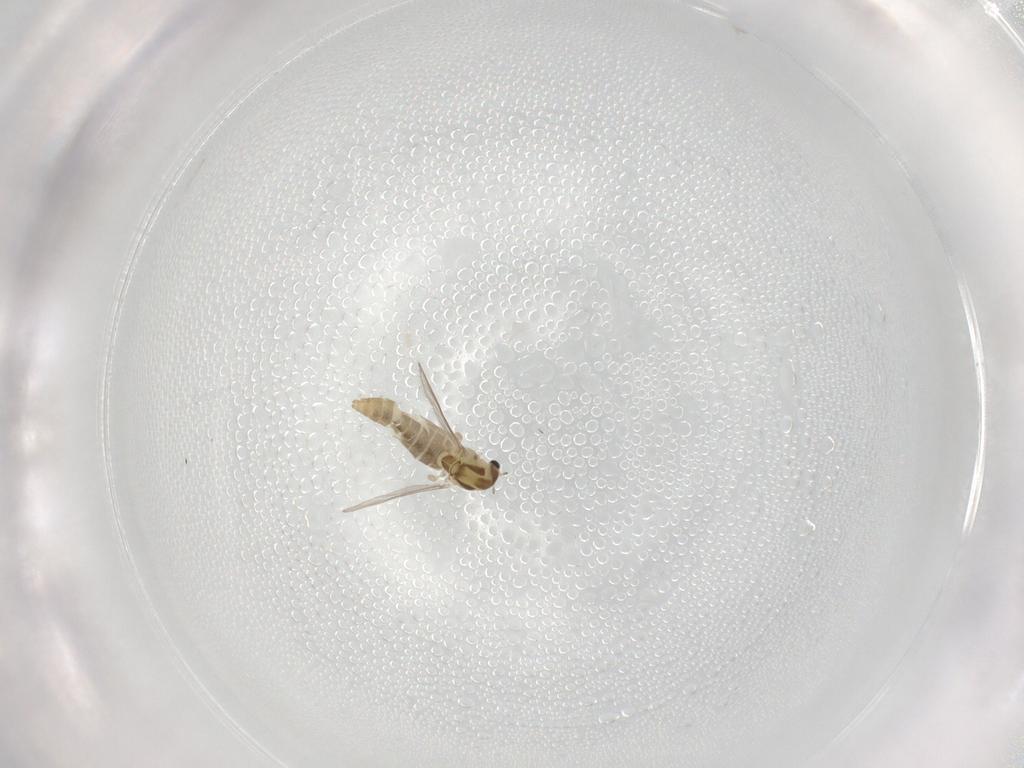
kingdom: Animalia
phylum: Arthropoda
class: Insecta
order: Diptera
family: Chironomidae
